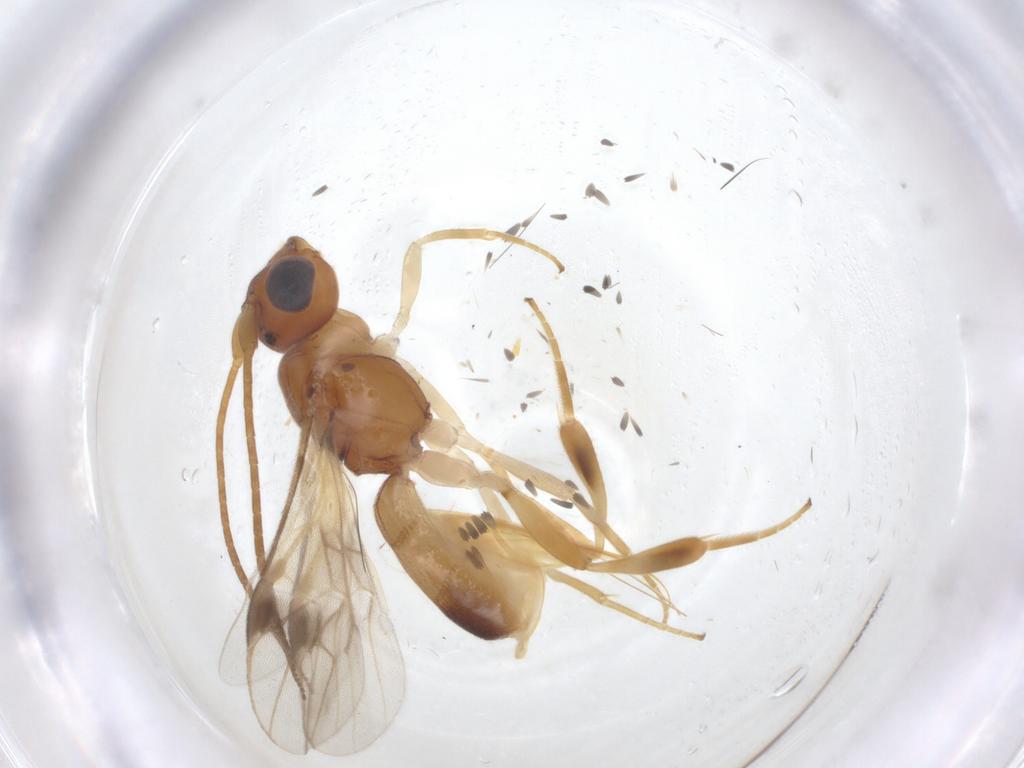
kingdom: Animalia
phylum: Arthropoda
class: Insecta
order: Hymenoptera
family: Braconidae
